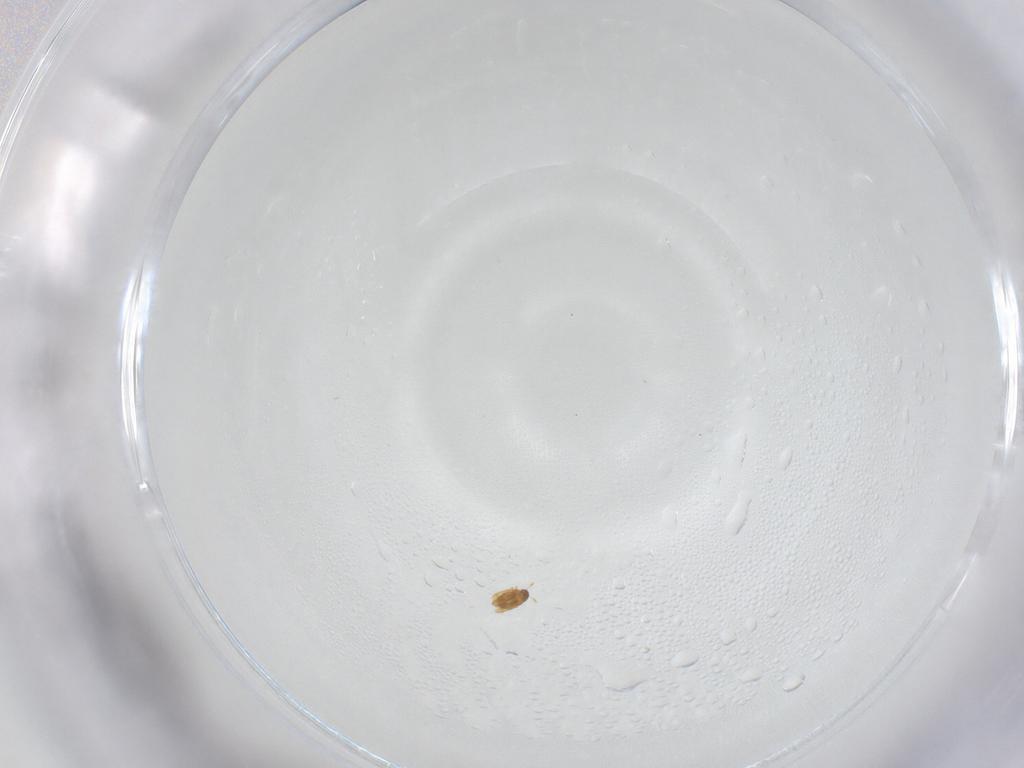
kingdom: Animalia
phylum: Arthropoda
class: Insecta
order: Coleoptera
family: Ptiliidae
